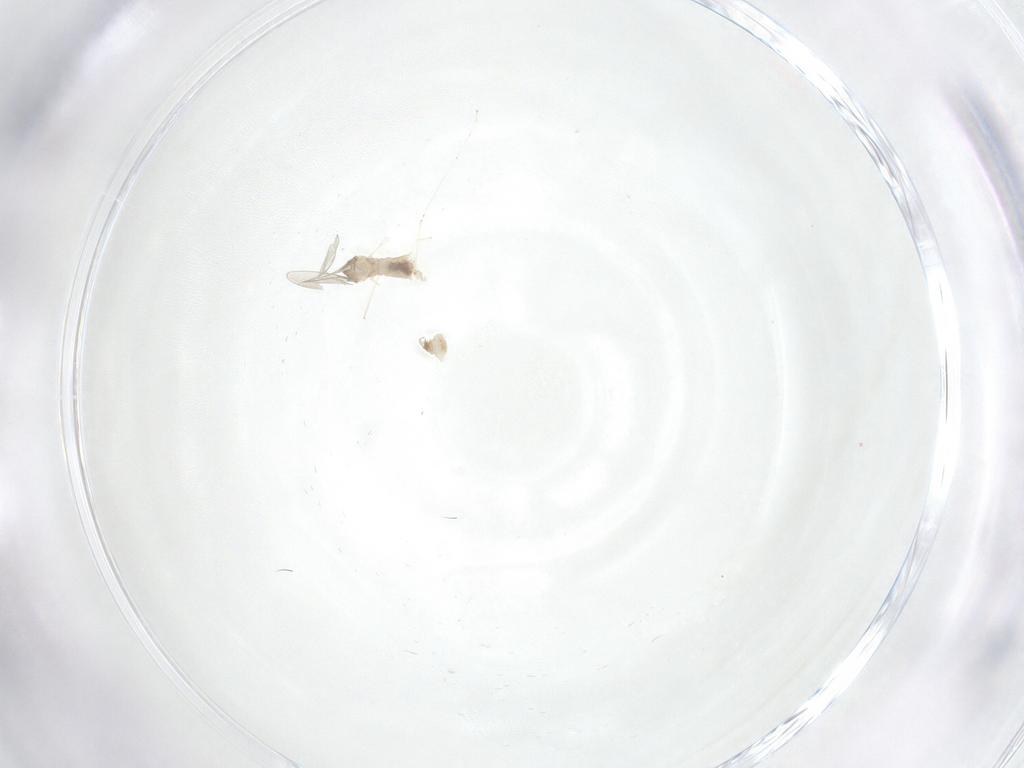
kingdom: Animalia
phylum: Arthropoda
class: Insecta
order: Diptera
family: Cecidomyiidae
